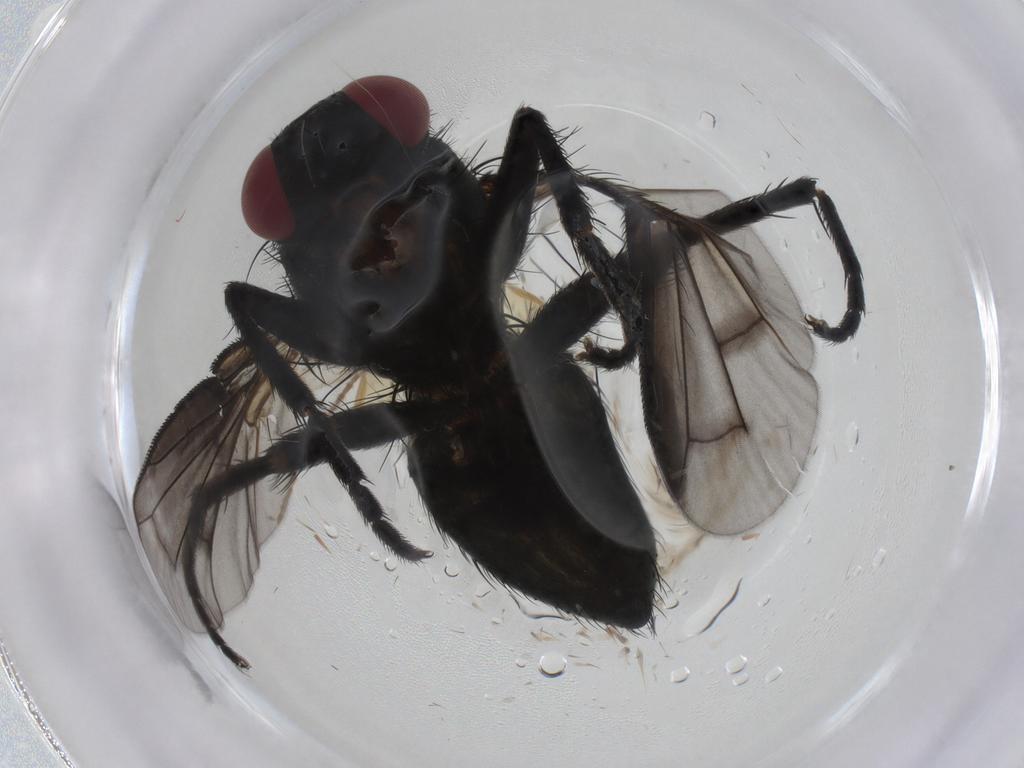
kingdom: Animalia
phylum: Arthropoda
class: Insecta
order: Diptera
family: Tachinidae
